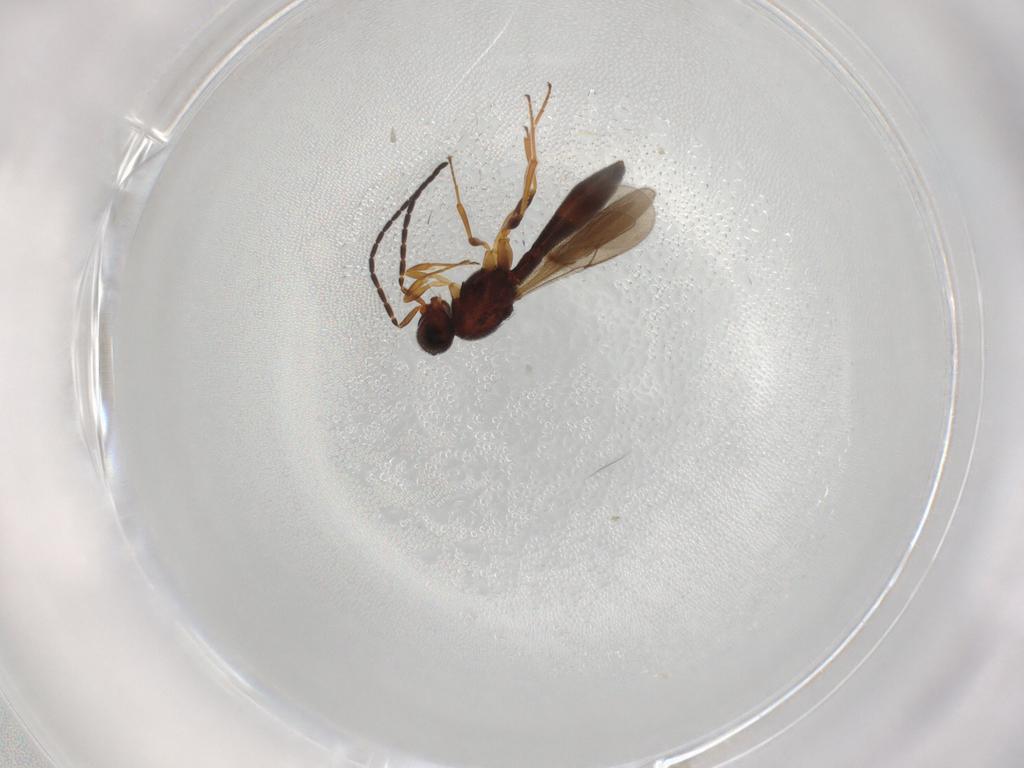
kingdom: Animalia
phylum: Arthropoda
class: Insecta
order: Hymenoptera
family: Scelionidae
